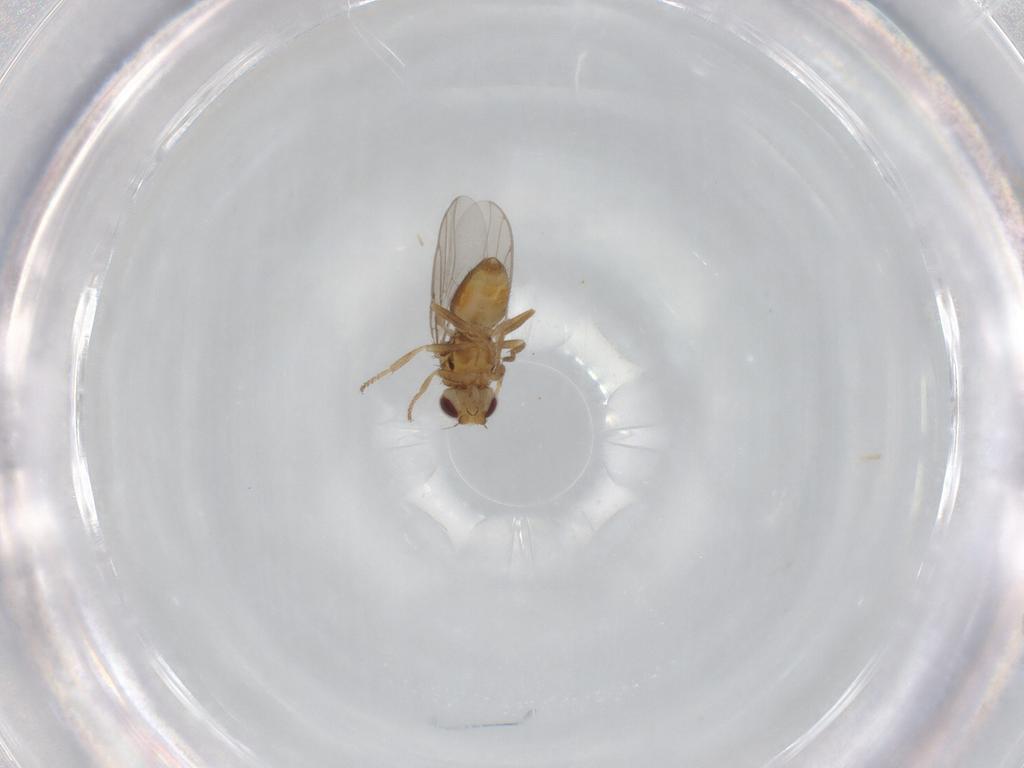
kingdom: Animalia
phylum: Arthropoda
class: Insecta
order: Diptera
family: Chloropidae
